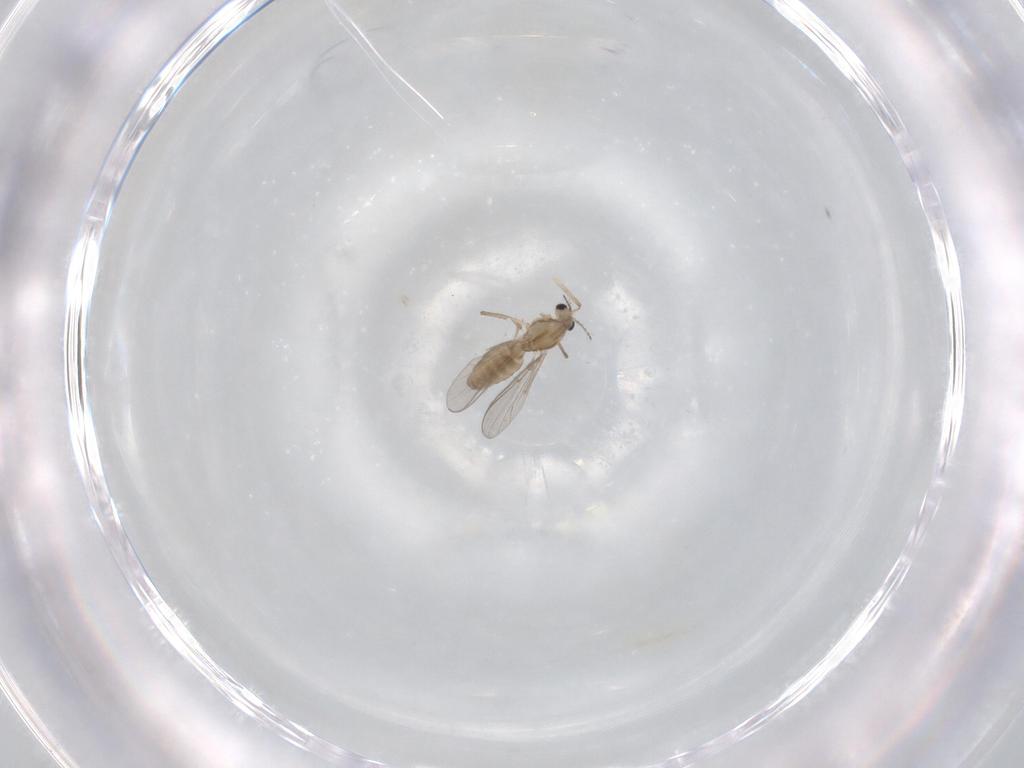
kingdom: Animalia
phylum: Arthropoda
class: Insecta
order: Diptera
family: Chironomidae
